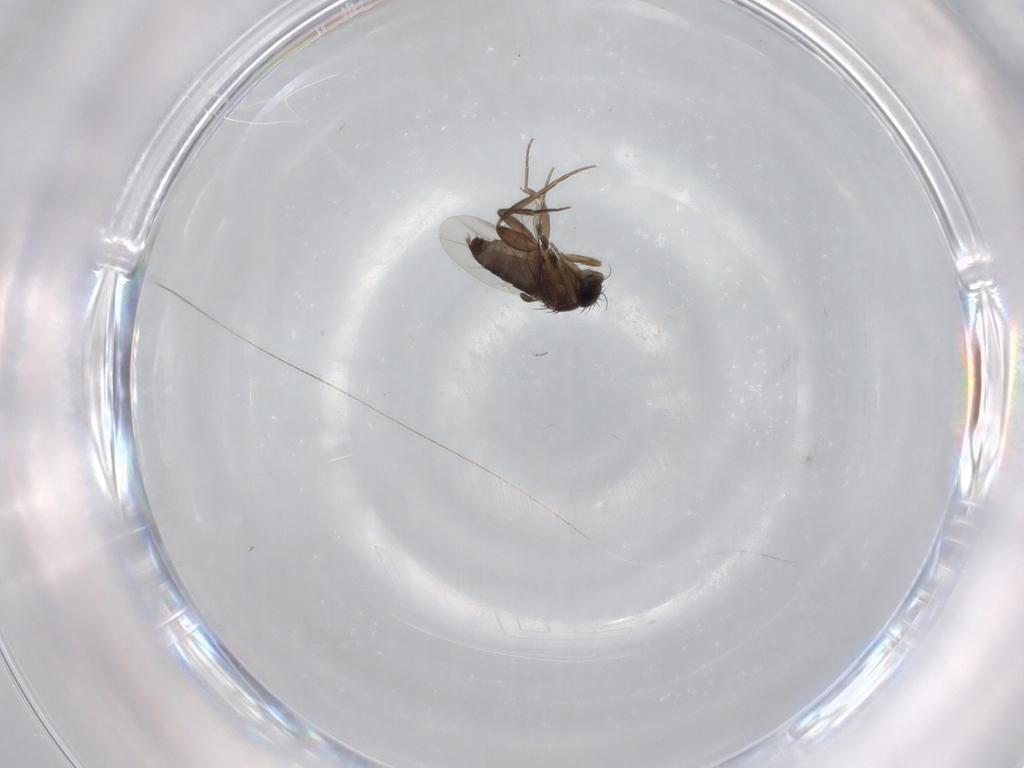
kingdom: Animalia
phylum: Arthropoda
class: Insecta
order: Diptera
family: Phoridae
